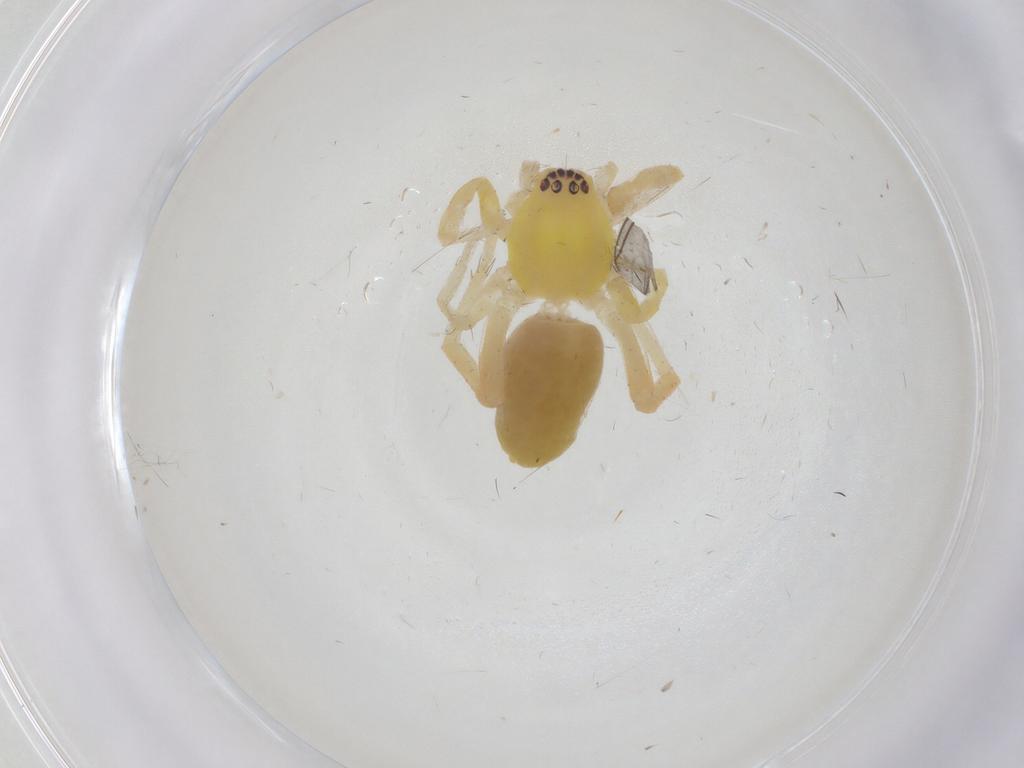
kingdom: Animalia
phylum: Arthropoda
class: Arachnida
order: Araneae
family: Anyphaenidae
